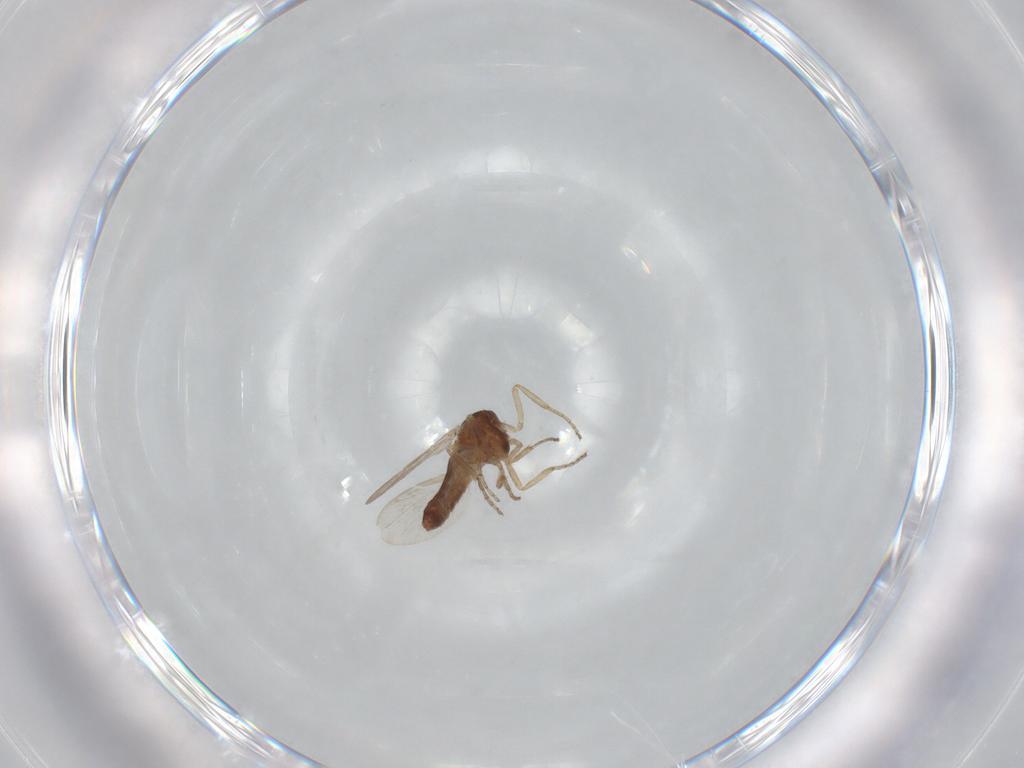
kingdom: Animalia
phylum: Arthropoda
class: Insecta
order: Diptera
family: Ceratopogonidae
